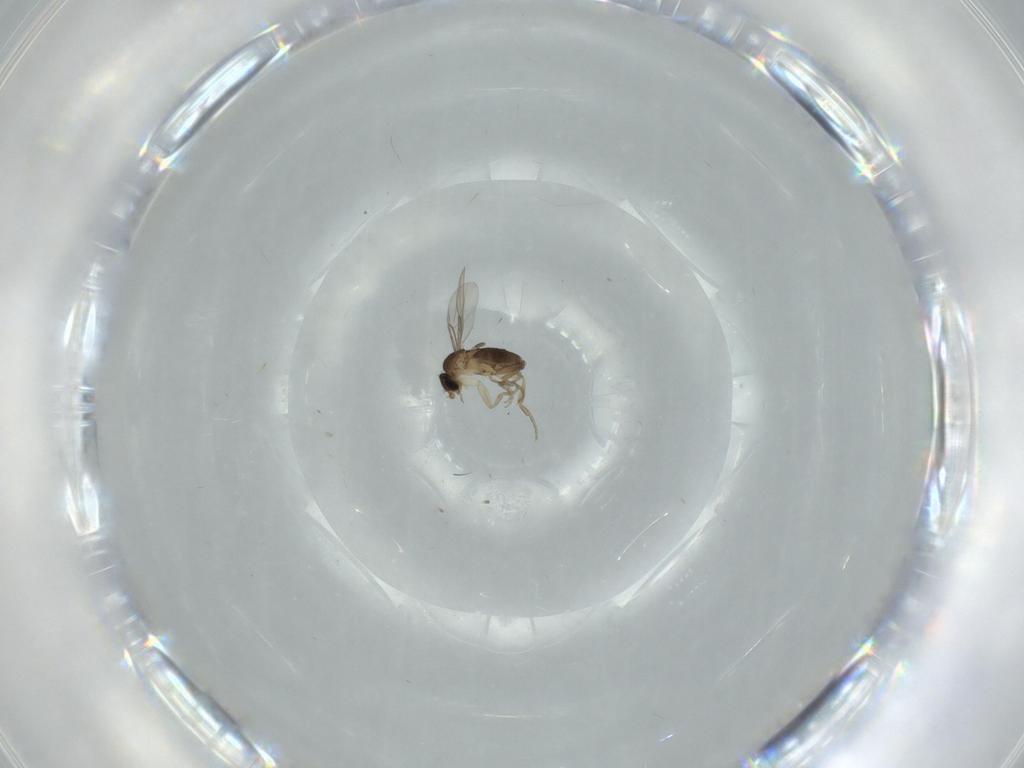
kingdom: Animalia
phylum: Arthropoda
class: Insecta
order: Diptera
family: Phoridae
